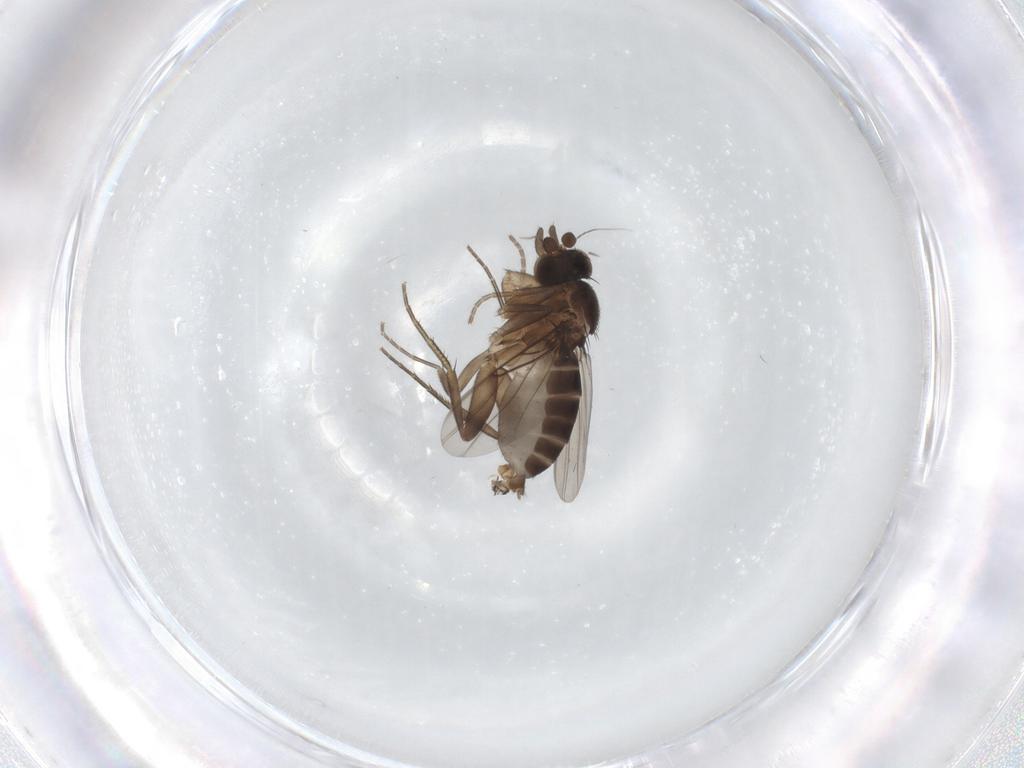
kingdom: Animalia
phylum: Arthropoda
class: Insecta
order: Diptera
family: Phoridae
